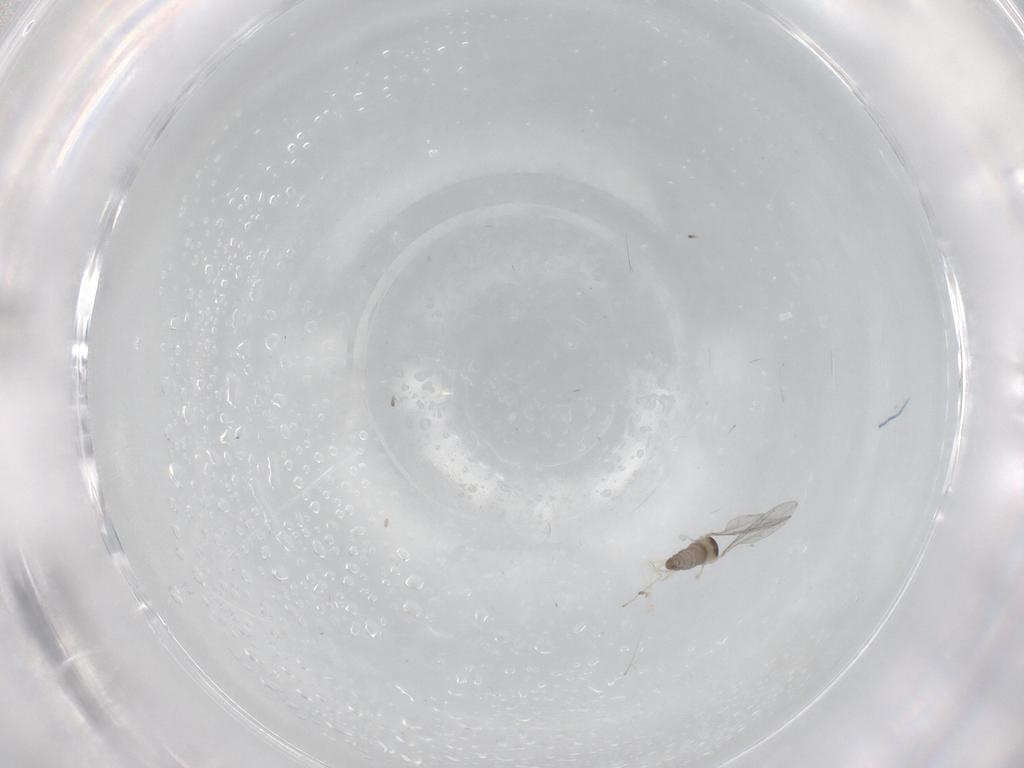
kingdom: Animalia
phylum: Arthropoda
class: Insecta
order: Diptera
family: Cecidomyiidae
